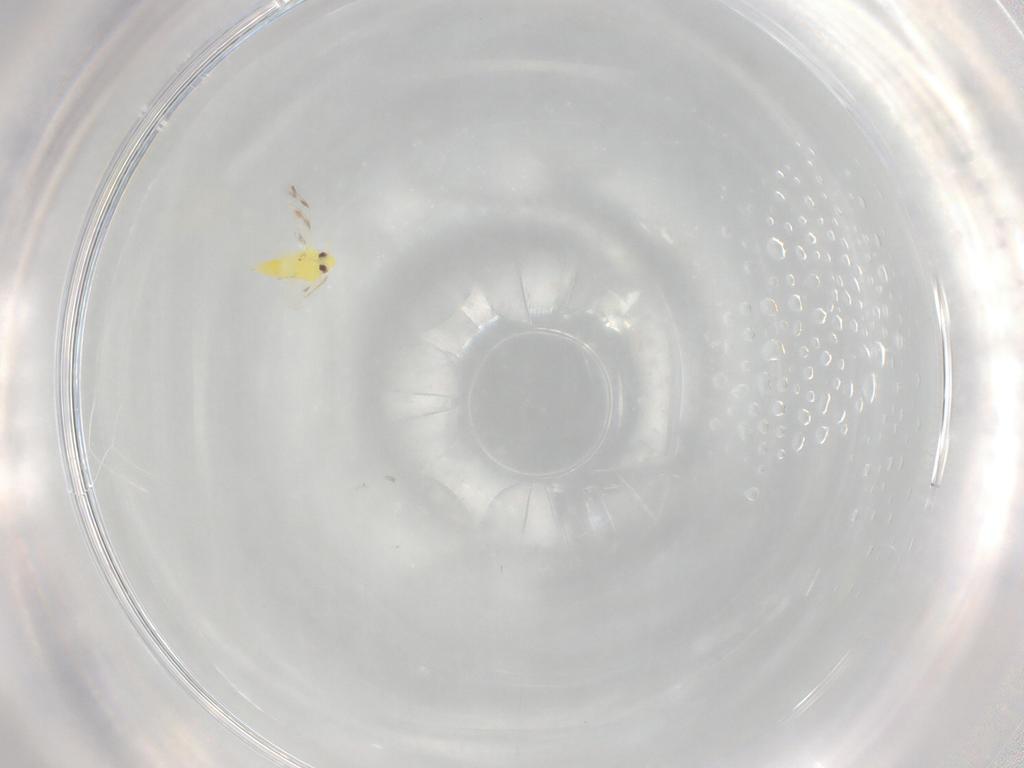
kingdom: Animalia
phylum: Arthropoda
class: Insecta
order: Hemiptera
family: Aleyrodidae
